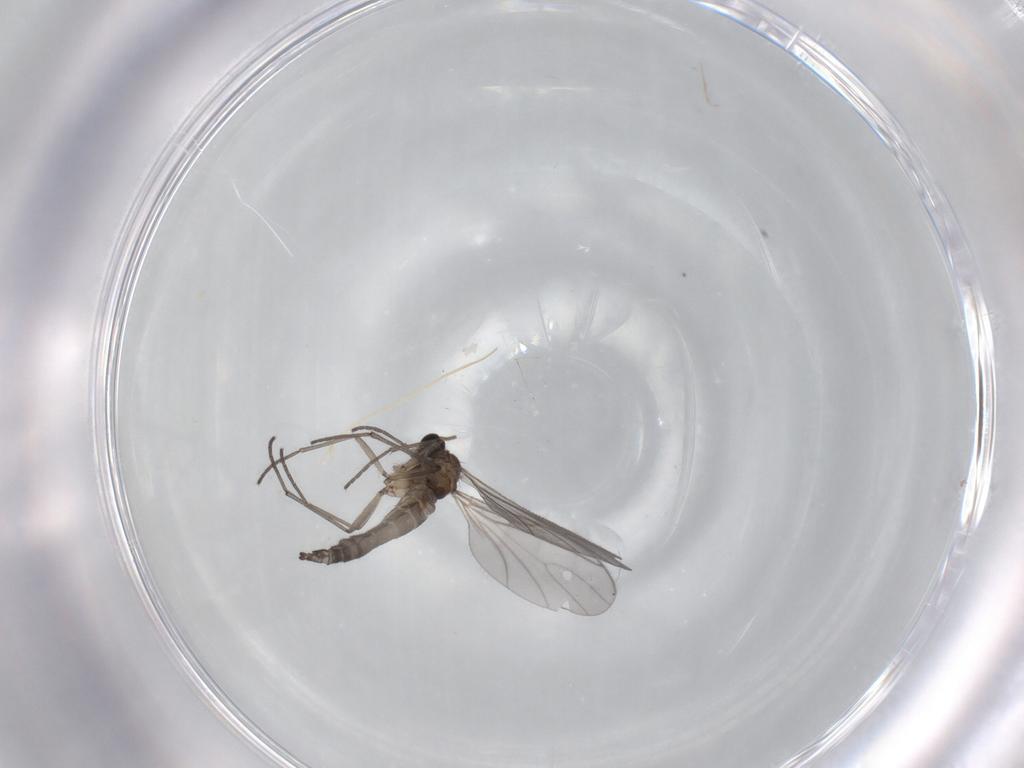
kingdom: Animalia
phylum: Arthropoda
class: Insecta
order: Diptera
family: Sciaridae
